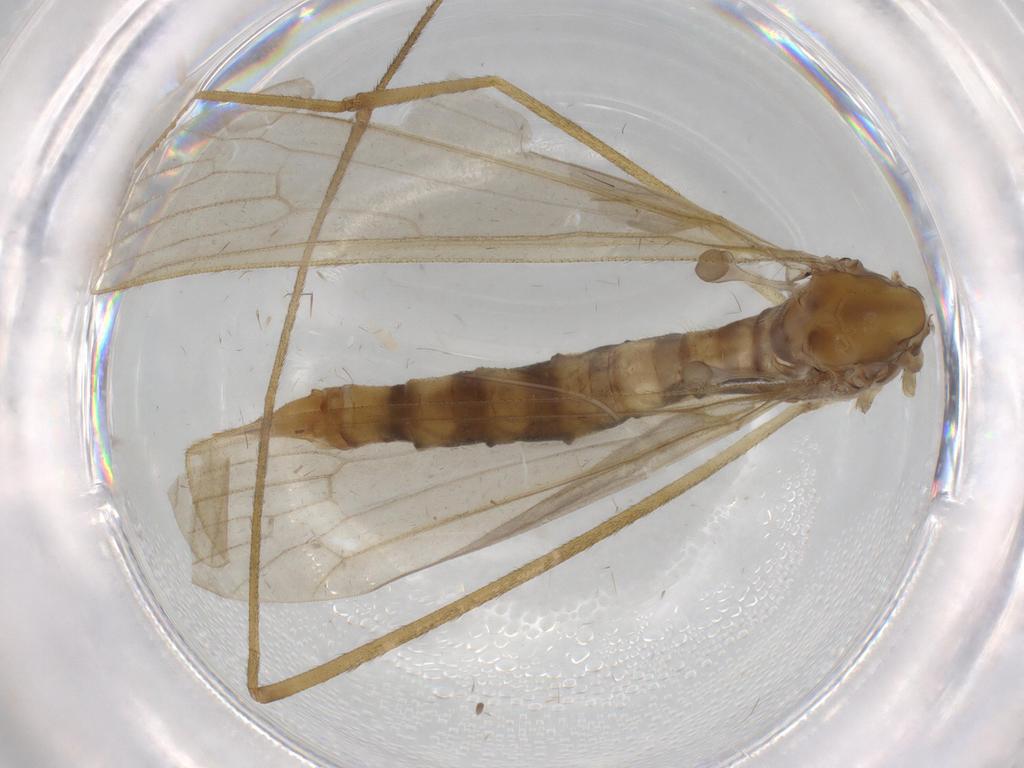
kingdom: Animalia
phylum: Arthropoda
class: Insecta
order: Diptera
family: Limoniidae
